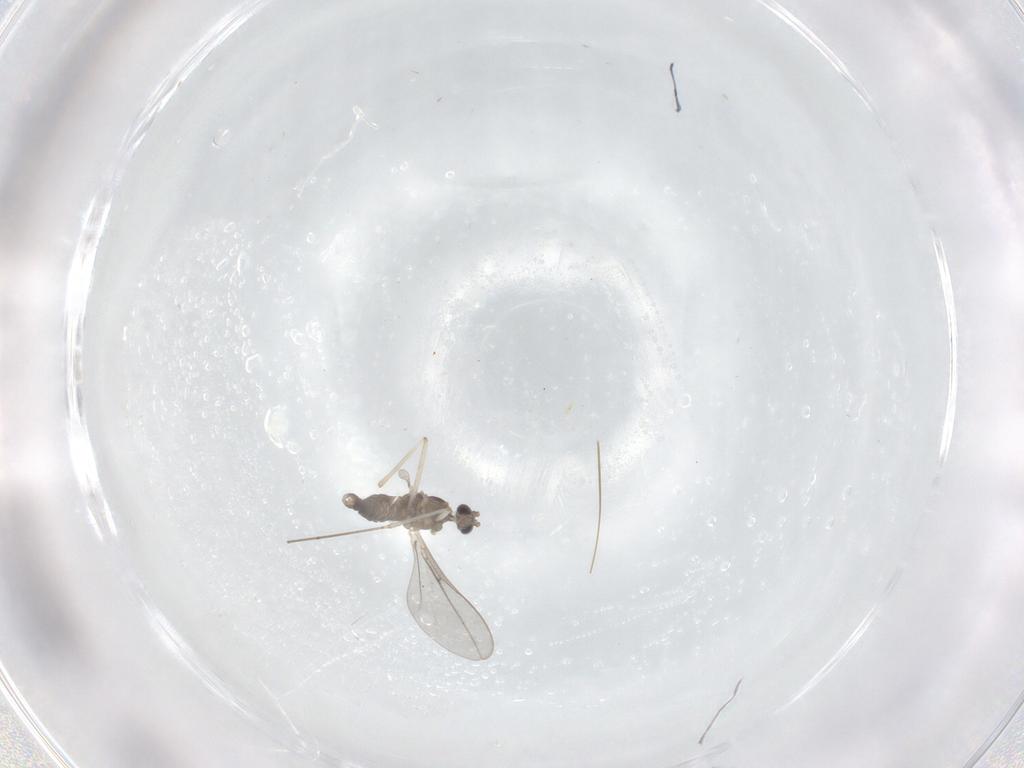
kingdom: Animalia
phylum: Arthropoda
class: Insecta
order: Diptera
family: Cecidomyiidae
